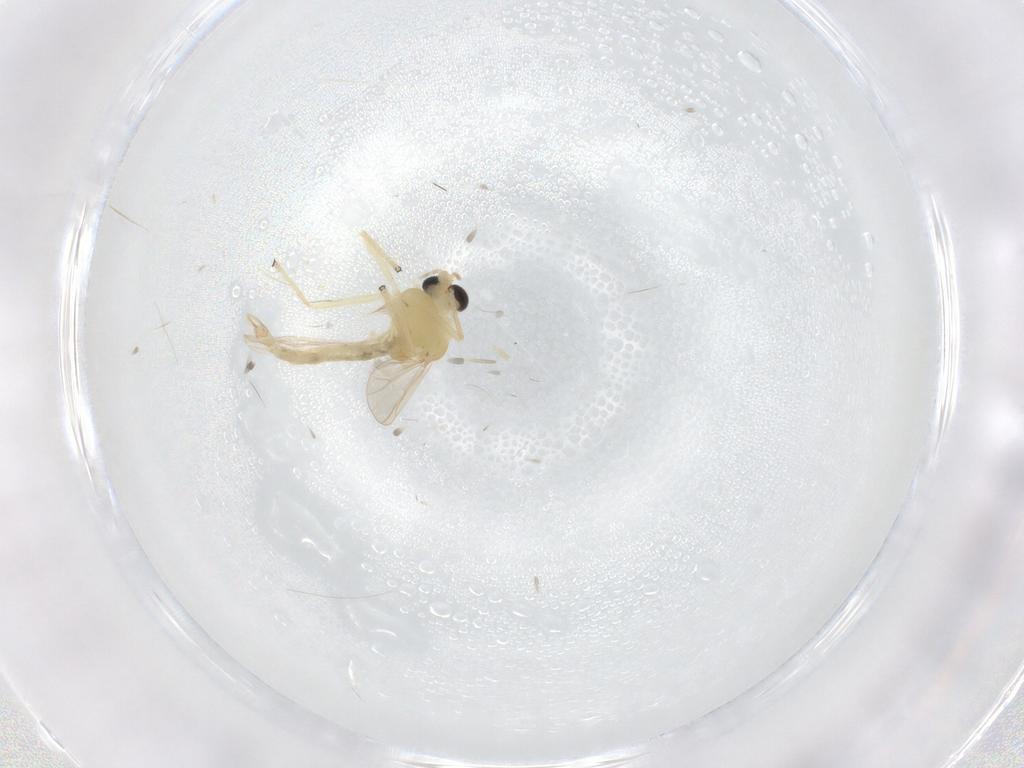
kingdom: Animalia
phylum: Arthropoda
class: Insecta
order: Diptera
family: Chironomidae
